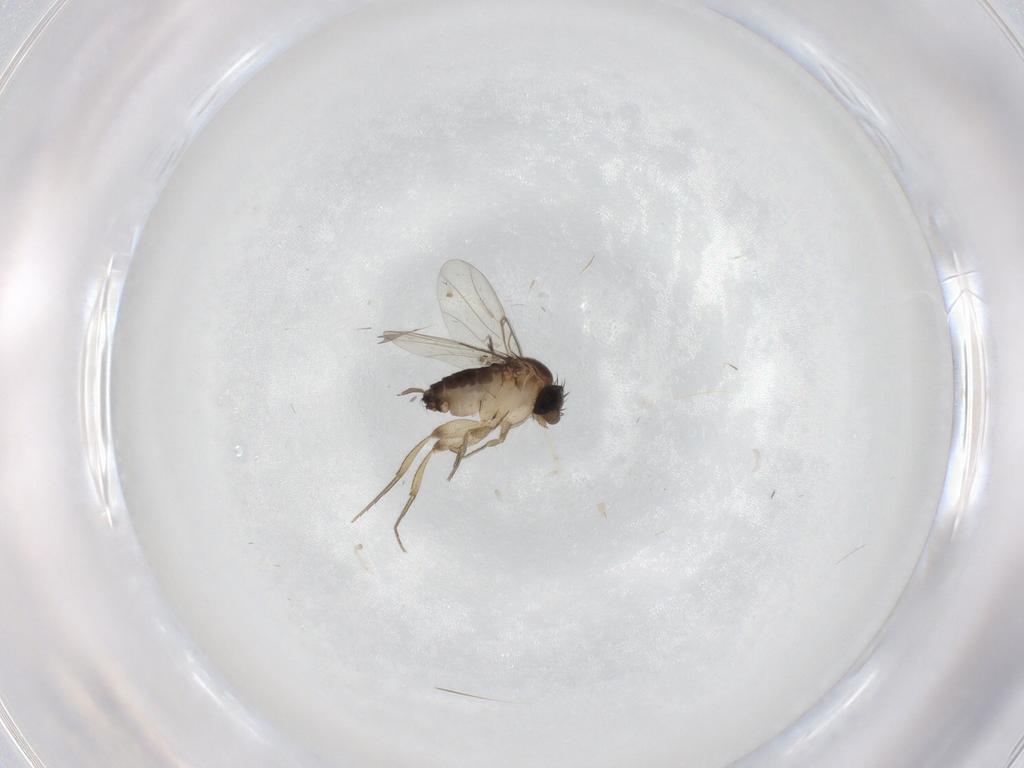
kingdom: Animalia
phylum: Arthropoda
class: Insecta
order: Diptera
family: Phoridae
